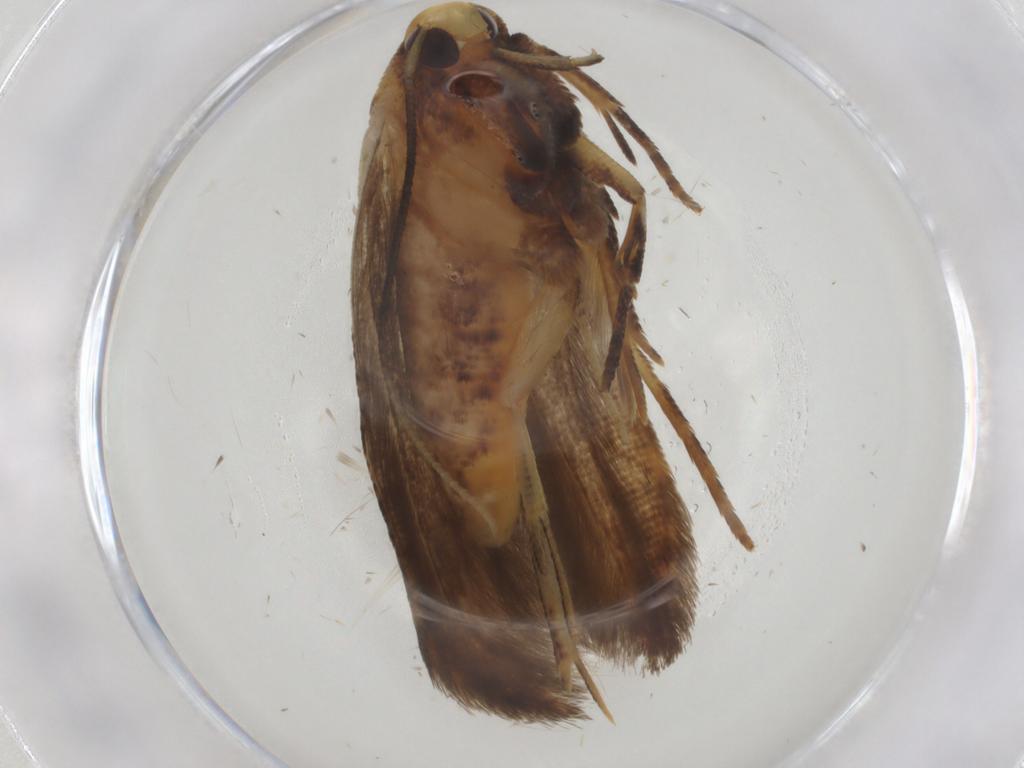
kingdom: Animalia
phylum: Arthropoda
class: Insecta
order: Lepidoptera
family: Cosmopterigidae
